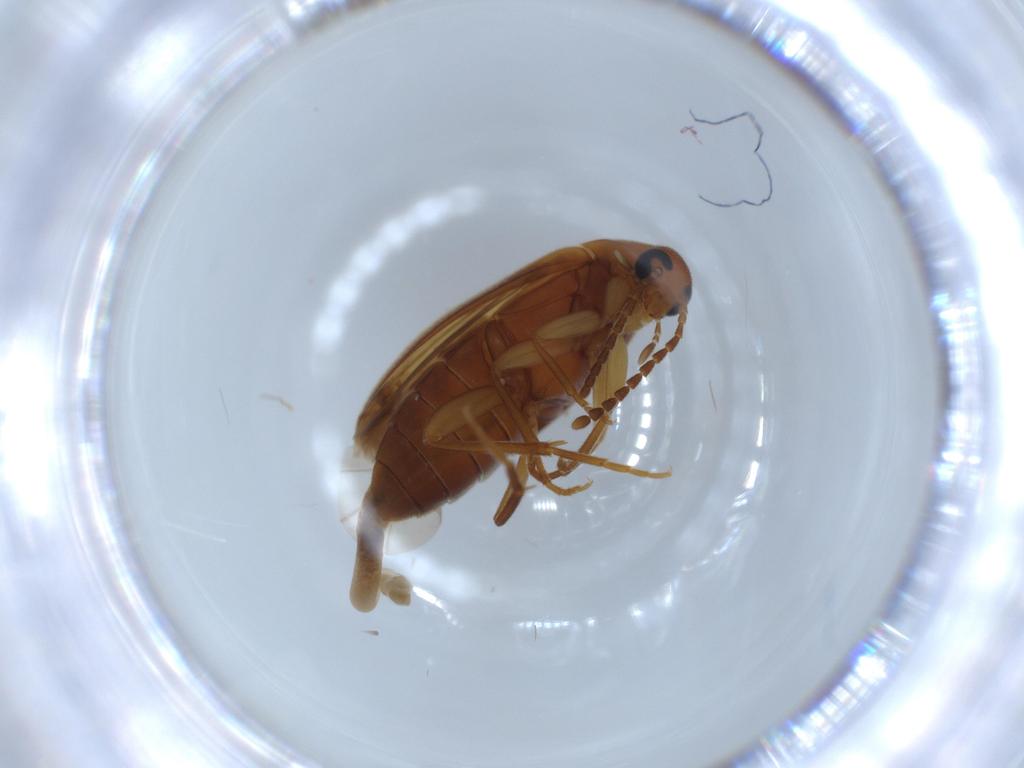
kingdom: Animalia
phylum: Arthropoda
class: Insecta
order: Coleoptera
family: Scraptiidae
